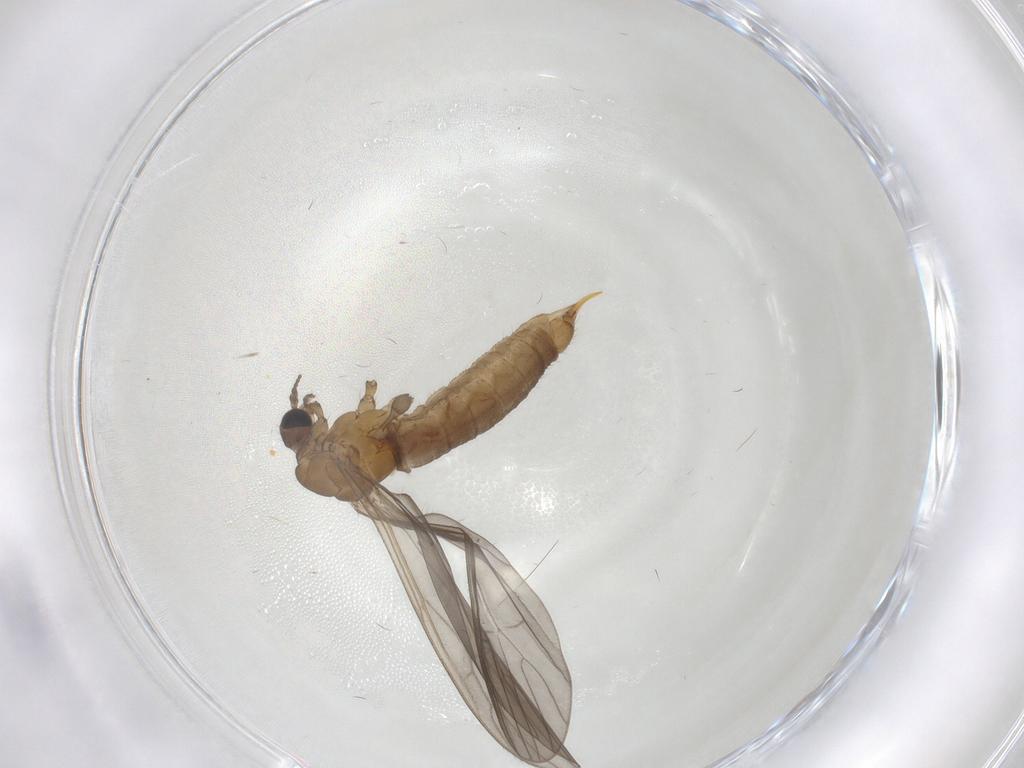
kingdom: Animalia
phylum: Arthropoda
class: Insecta
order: Diptera
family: Limoniidae
